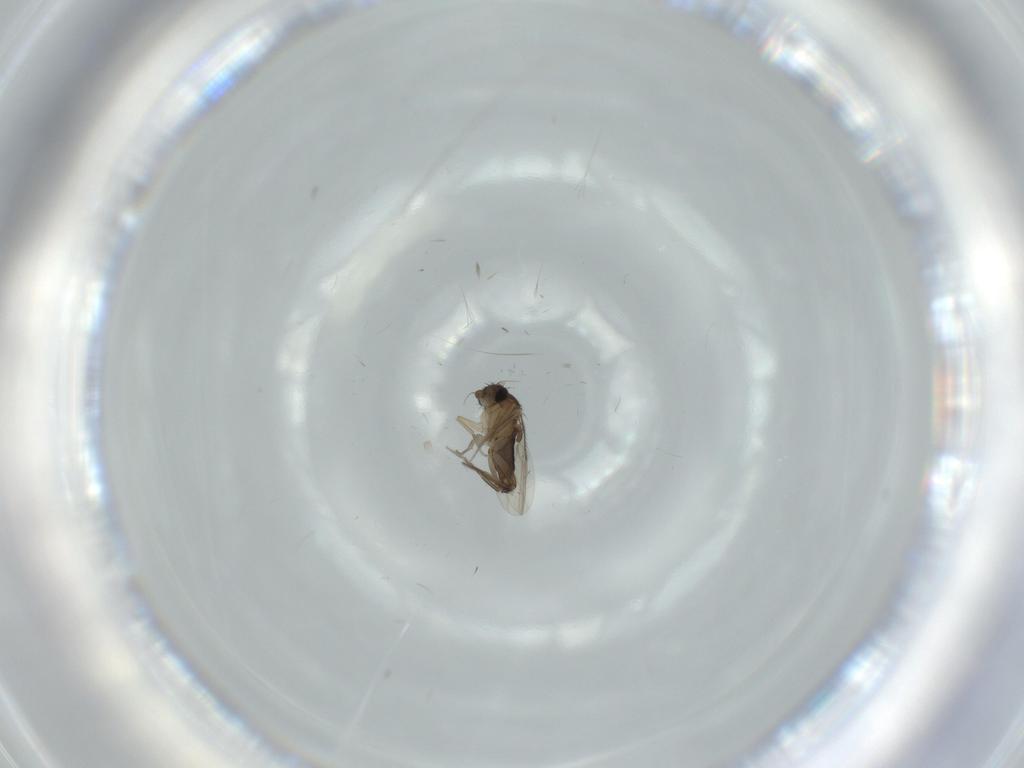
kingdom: Animalia
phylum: Arthropoda
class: Insecta
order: Diptera
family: Phoridae
